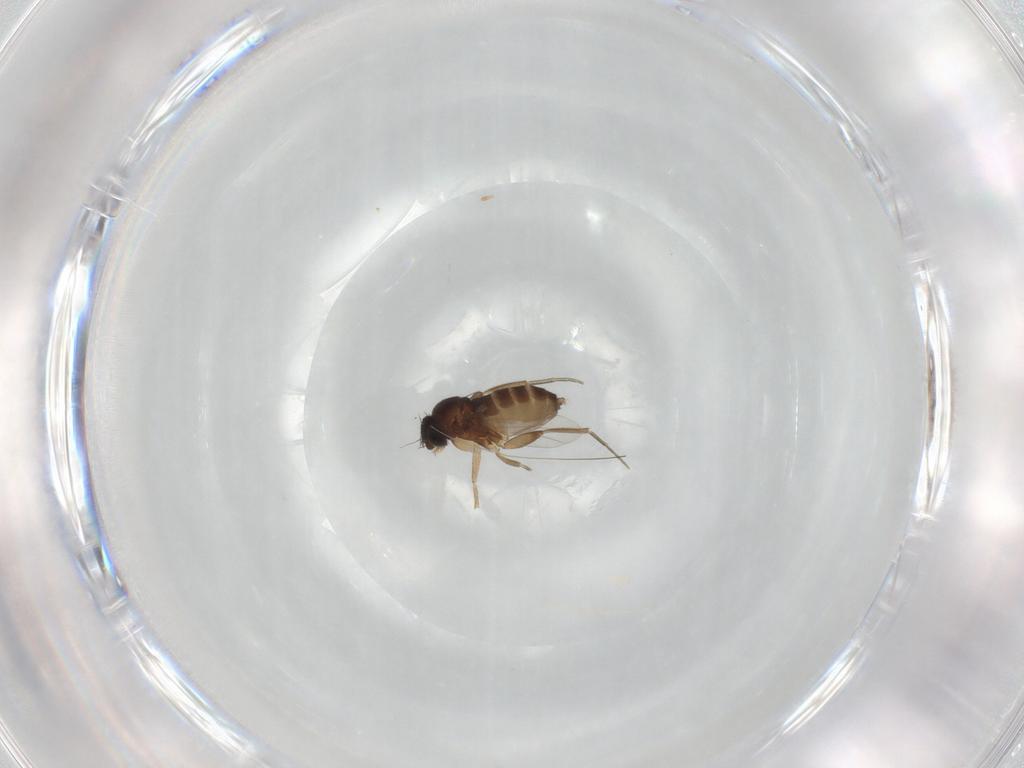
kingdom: Animalia
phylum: Arthropoda
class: Insecta
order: Diptera
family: Phoridae
